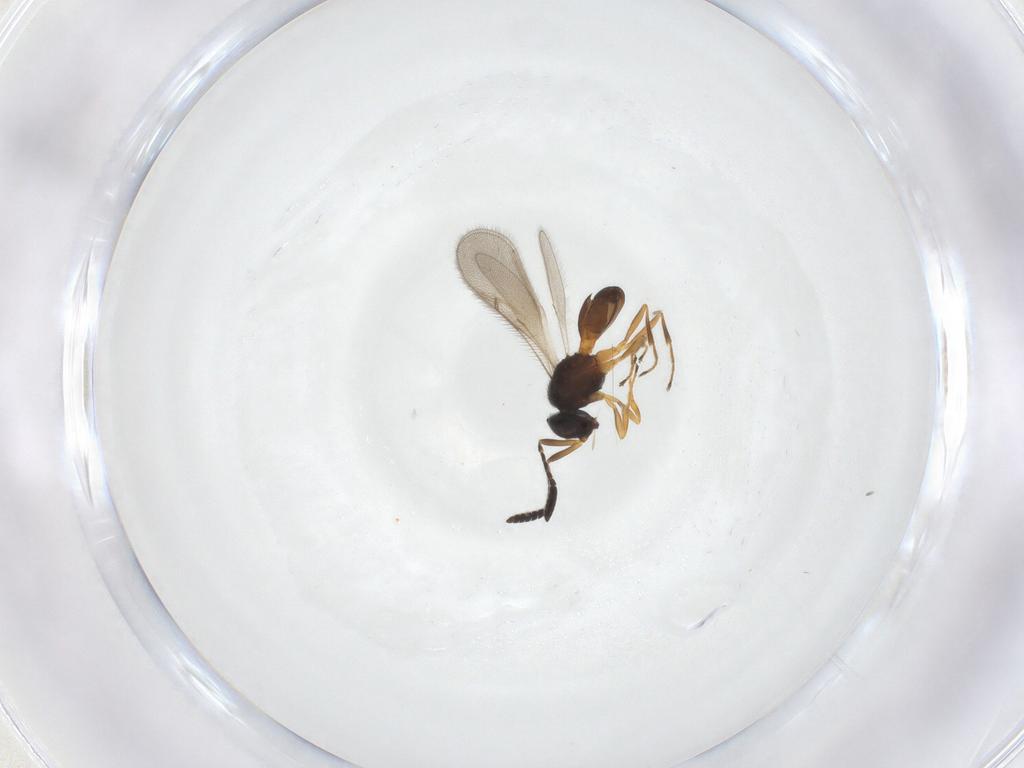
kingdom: Animalia
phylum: Arthropoda
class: Insecta
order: Hymenoptera
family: Scelionidae
